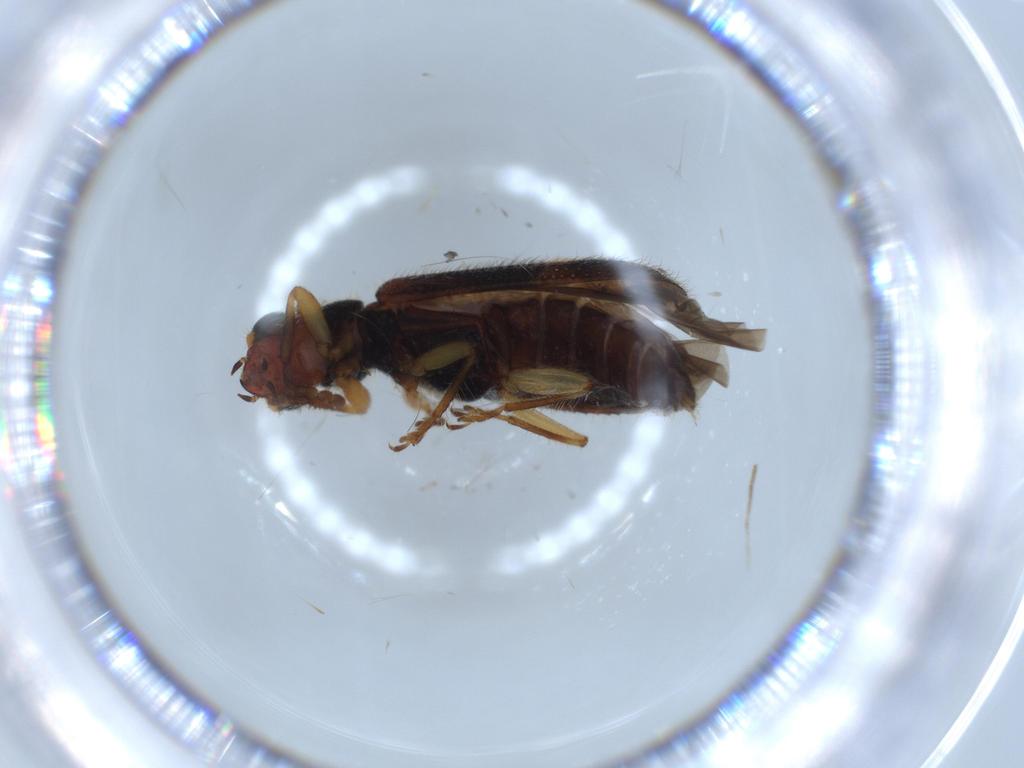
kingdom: Animalia
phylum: Arthropoda
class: Insecta
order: Coleoptera
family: Cleridae
